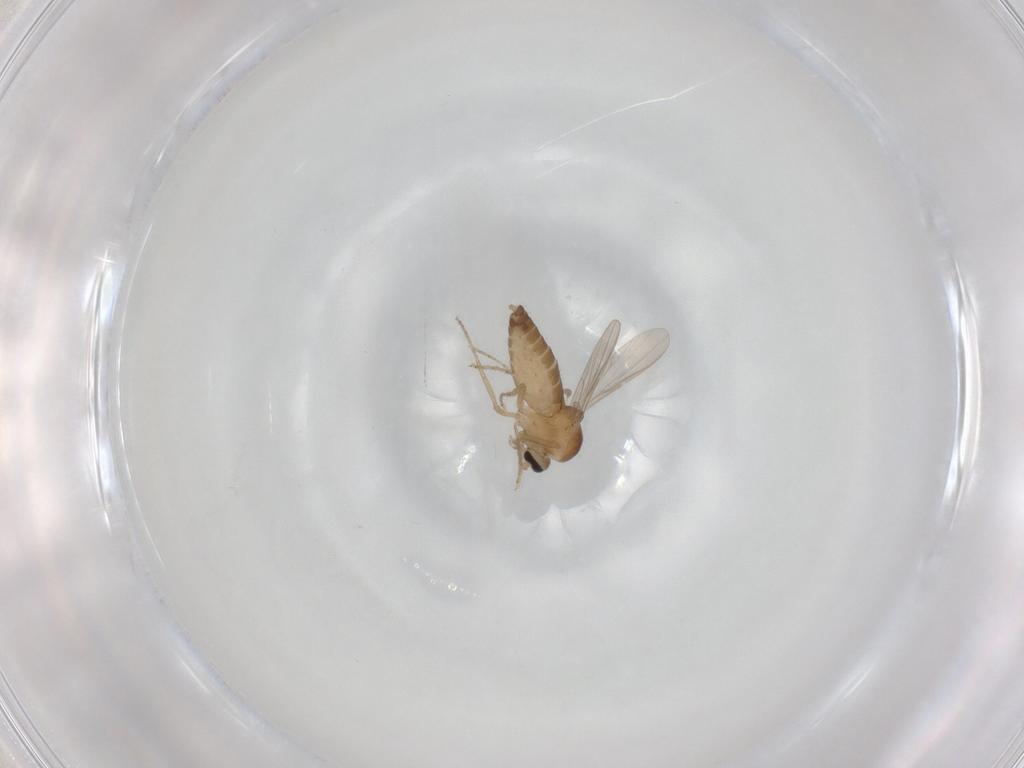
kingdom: Animalia
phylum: Arthropoda
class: Insecta
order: Diptera
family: Ceratopogonidae
